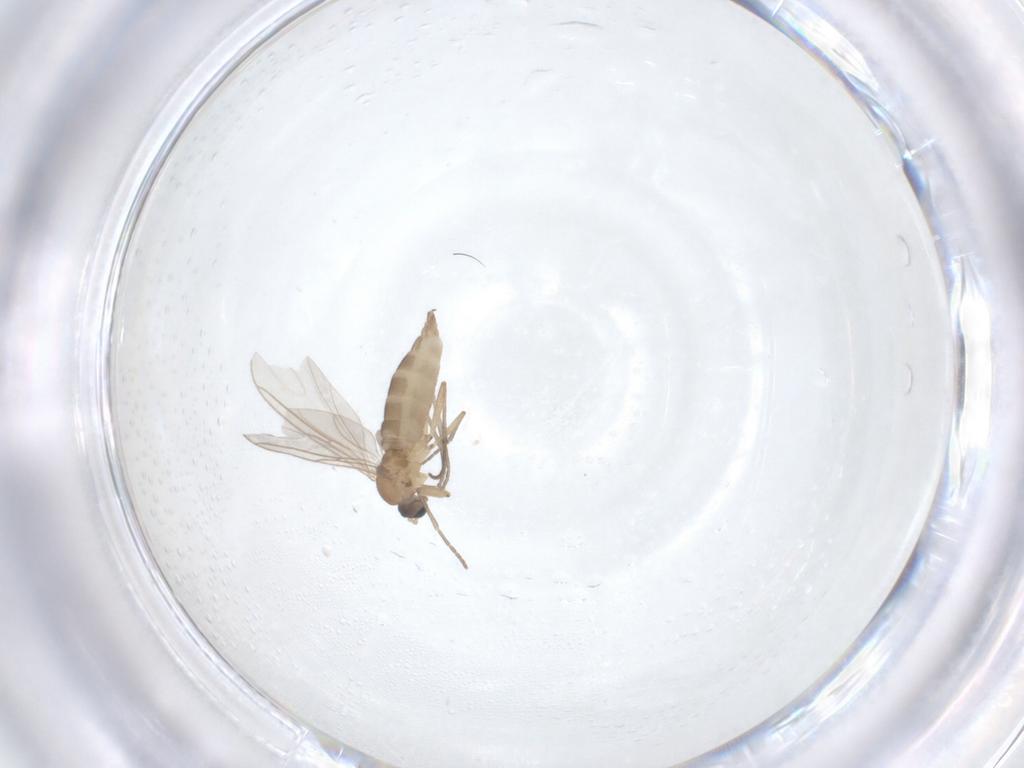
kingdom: Animalia
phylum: Arthropoda
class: Insecta
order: Diptera
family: Sciaridae
